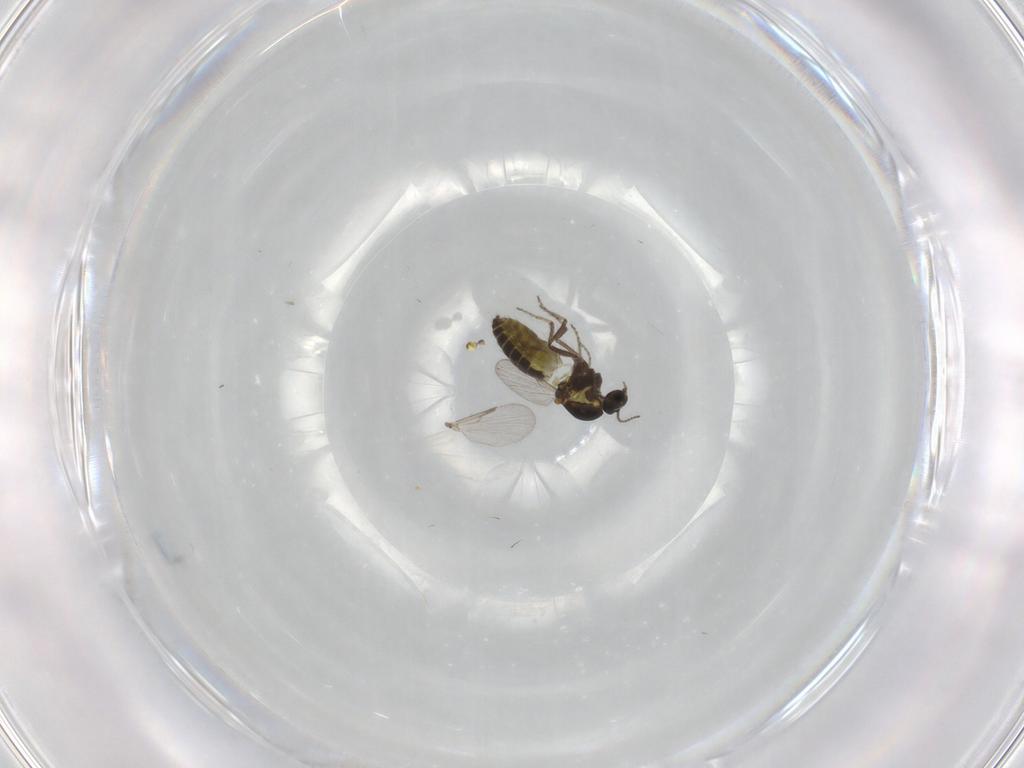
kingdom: Animalia
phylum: Arthropoda
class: Insecta
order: Diptera
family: Ceratopogonidae
